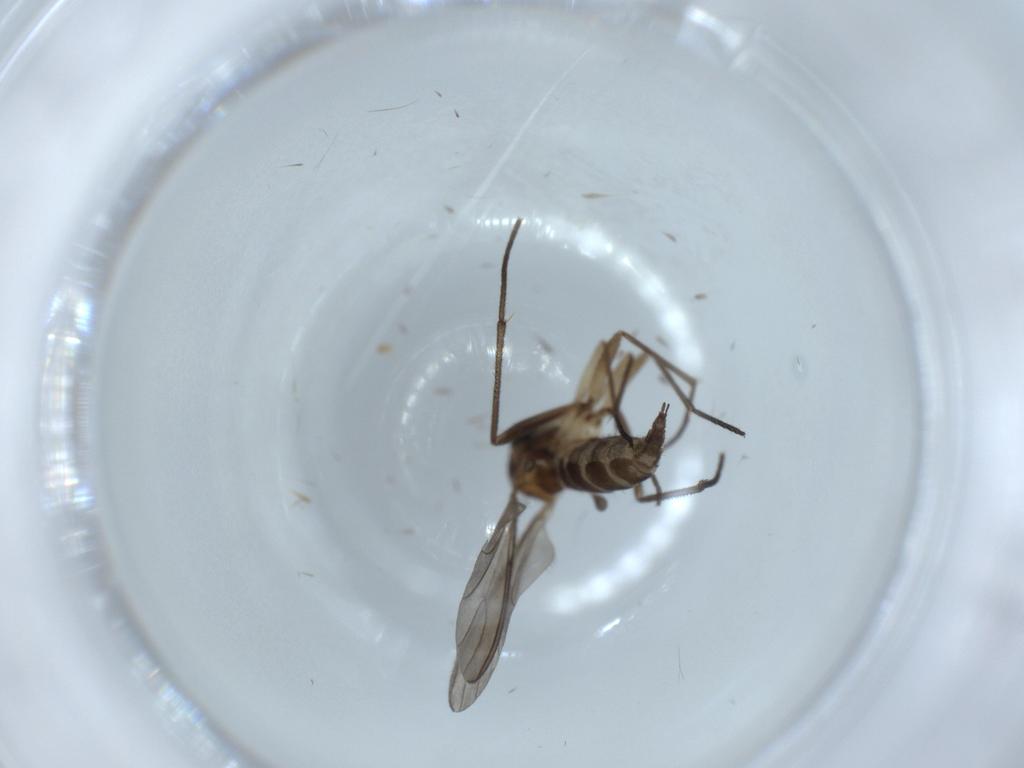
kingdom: Animalia
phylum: Arthropoda
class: Insecta
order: Diptera
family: Sciaridae
